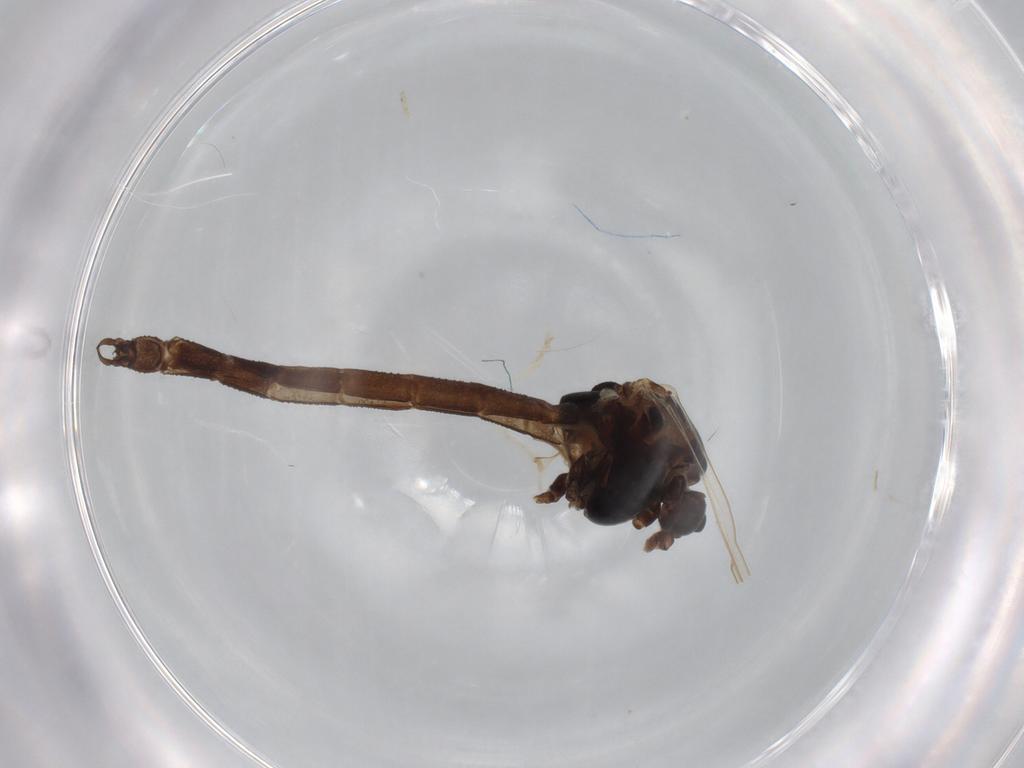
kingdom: Animalia
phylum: Arthropoda
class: Insecta
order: Diptera
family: Chironomidae
